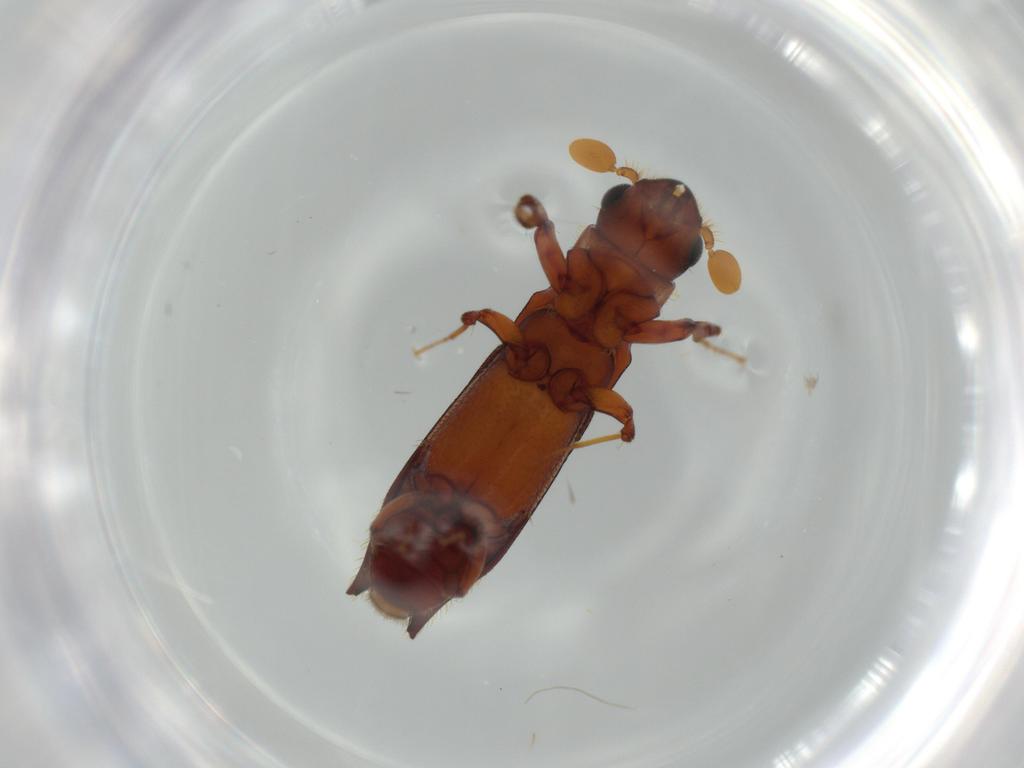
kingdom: Animalia
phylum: Arthropoda
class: Insecta
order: Coleoptera
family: Curculionidae
